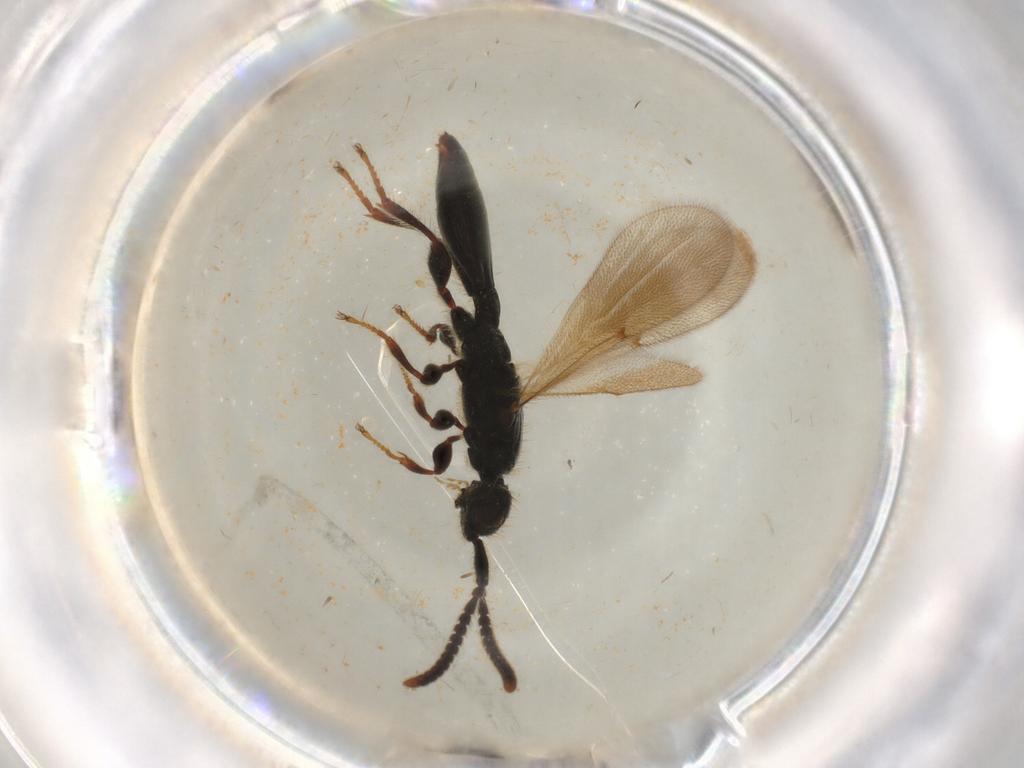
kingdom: Animalia
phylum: Arthropoda
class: Insecta
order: Hymenoptera
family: Diapriidae
